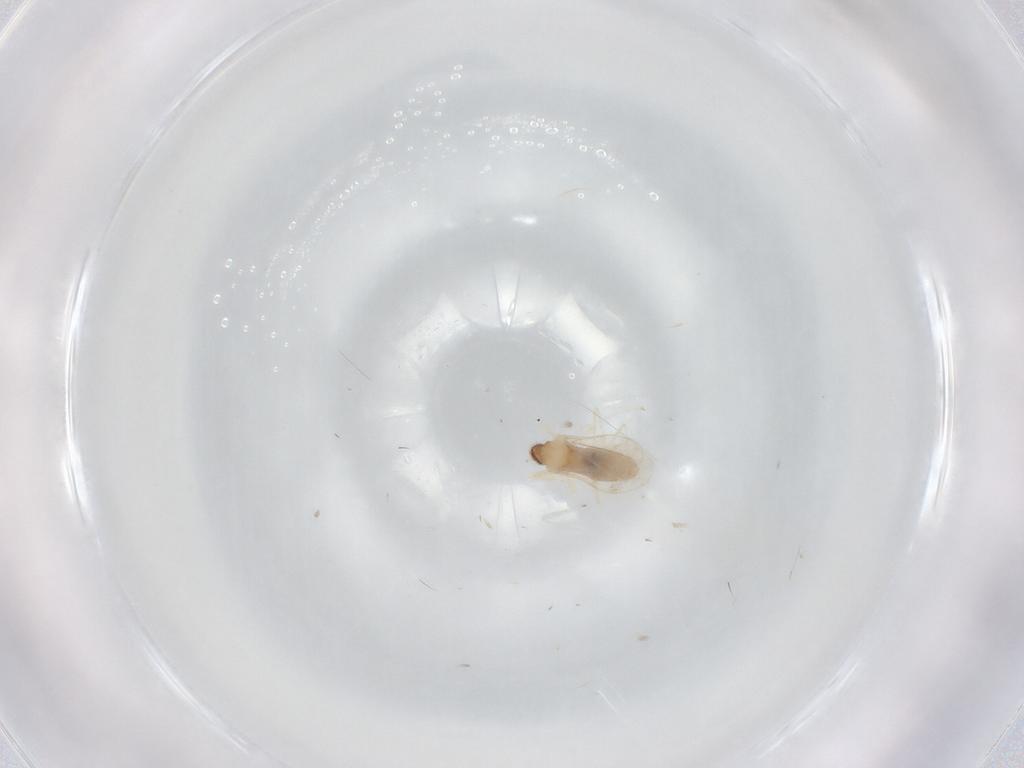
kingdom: Animalia
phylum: Arthropoda
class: Insecta
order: Diptera
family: Cecidomyiidae
